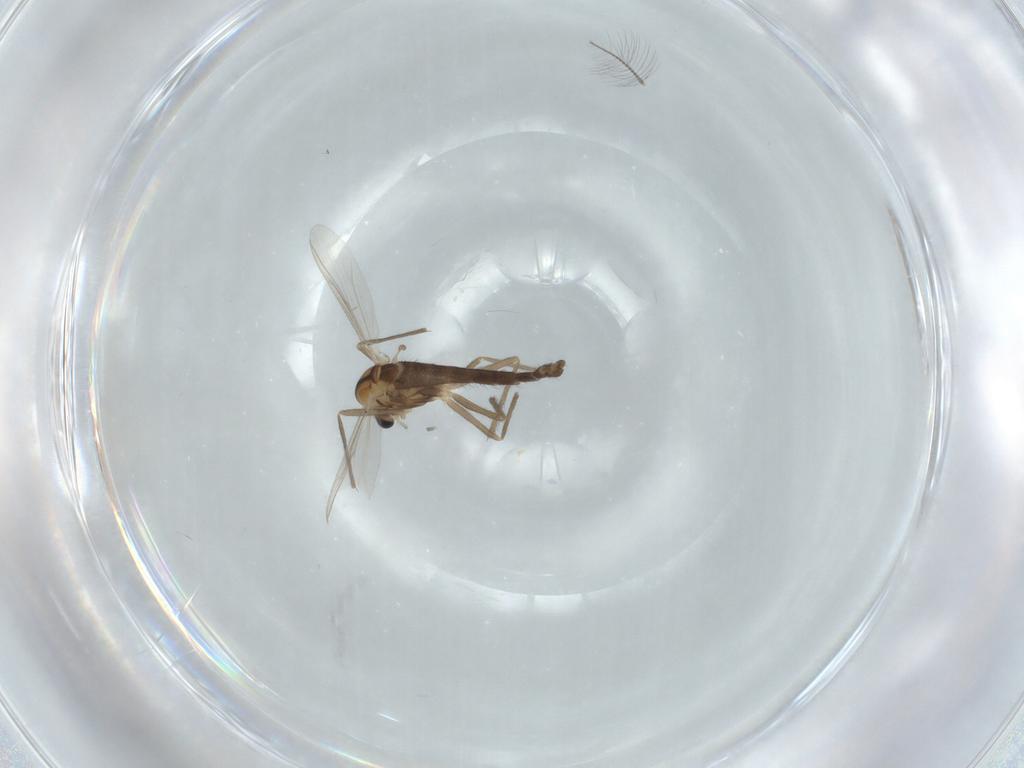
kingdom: Animalia
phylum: Arthropoda
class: Insecta
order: Diptera
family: Chironomidae
